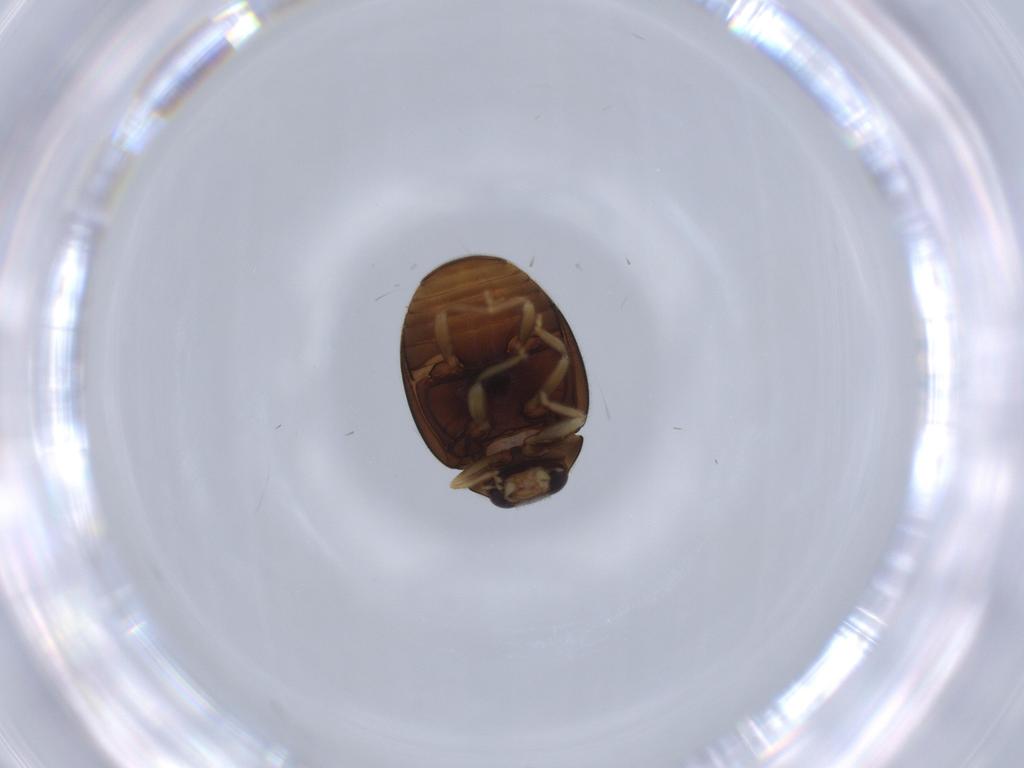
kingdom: Animalia
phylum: Arthropoda
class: Insecta
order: Coleoptera
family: Coccinellidae
